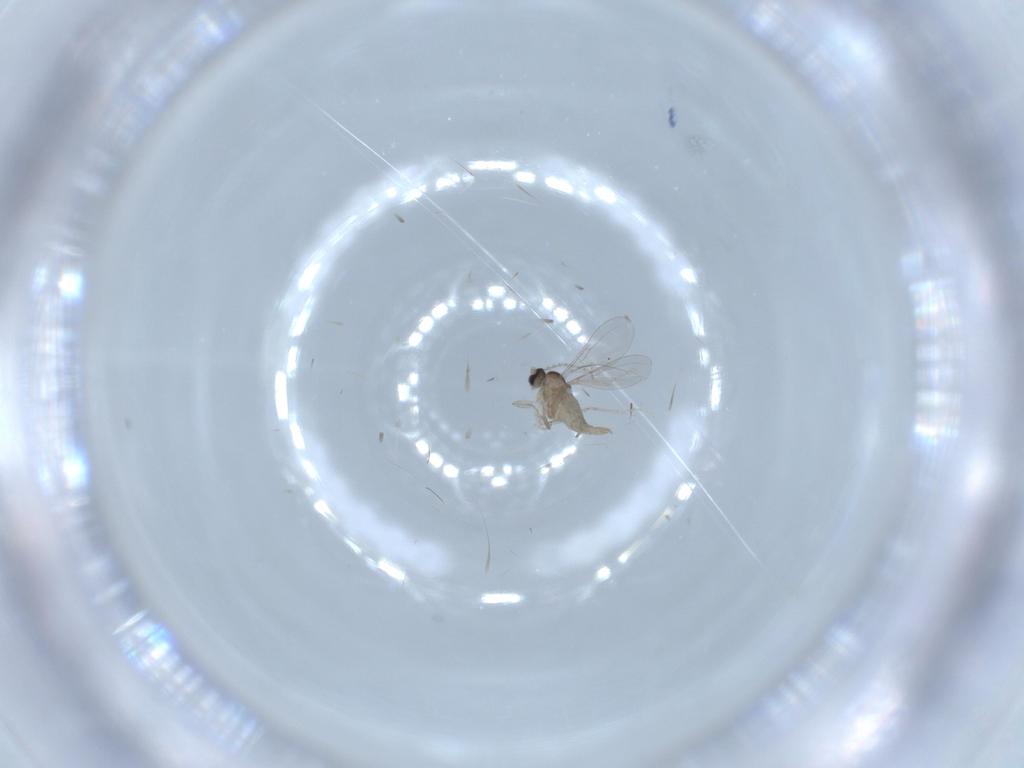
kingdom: Animalia
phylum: Arthropoda
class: Insecta
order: Diptera
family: Cecidomyiidae
